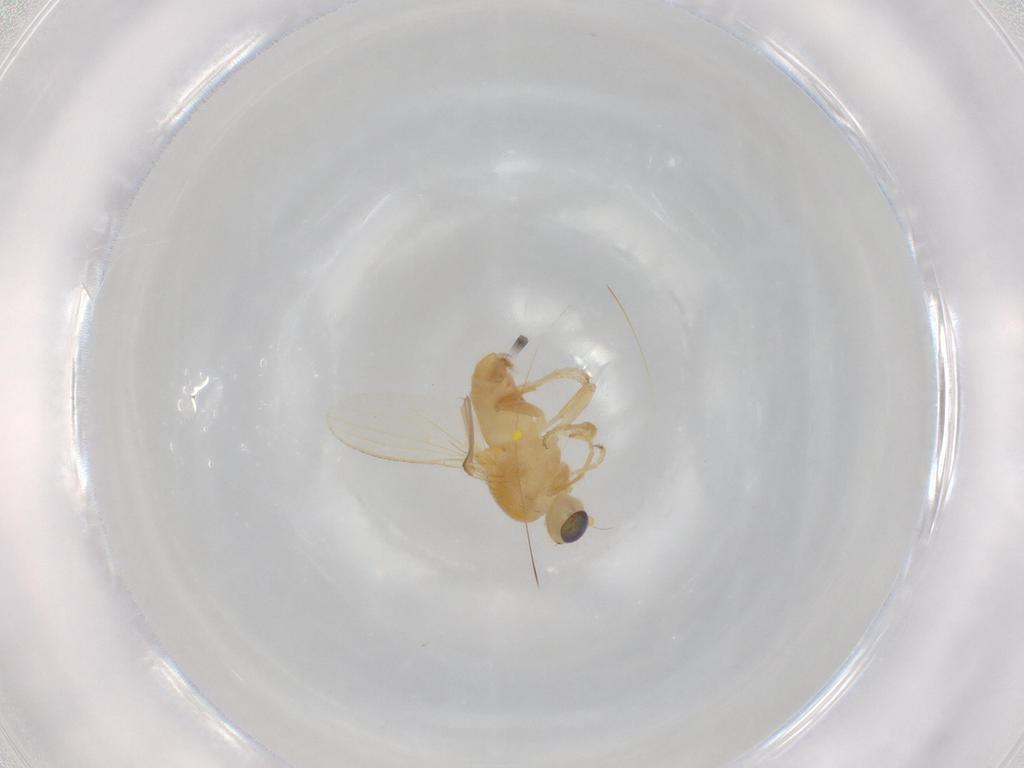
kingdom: Animalia
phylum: Arthropoda
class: Insecta
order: Diptera
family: Chyromyidae
